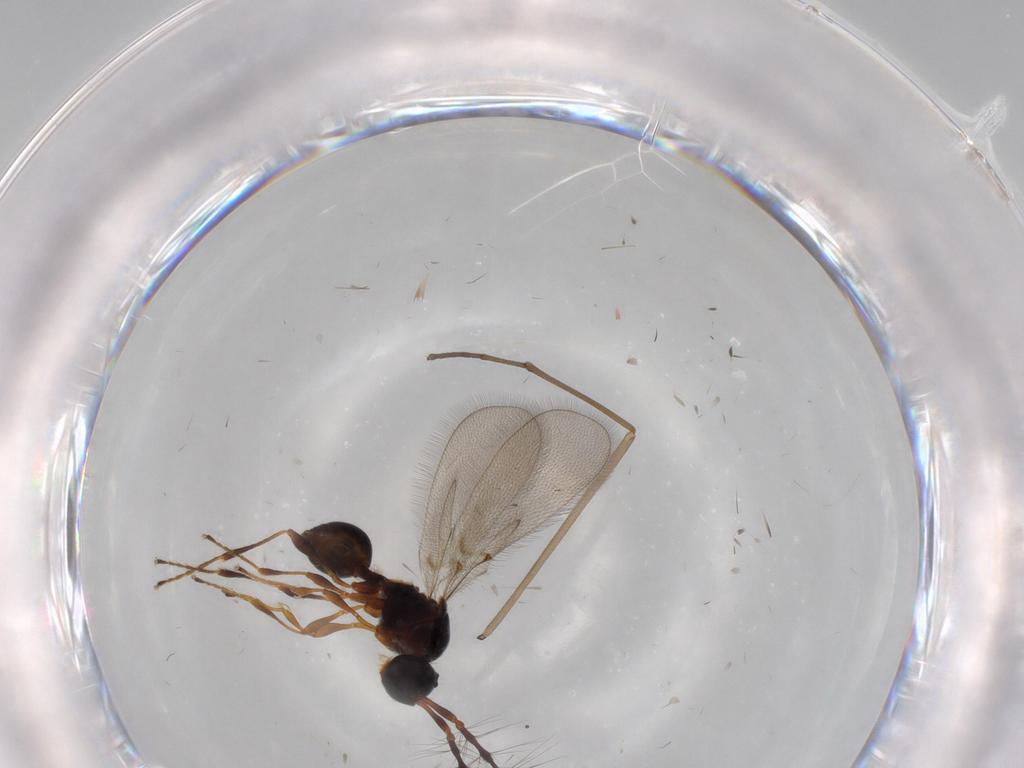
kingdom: Animalia
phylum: Arthropoda
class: Insecta
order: Hymenoptera
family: Diapriidae
